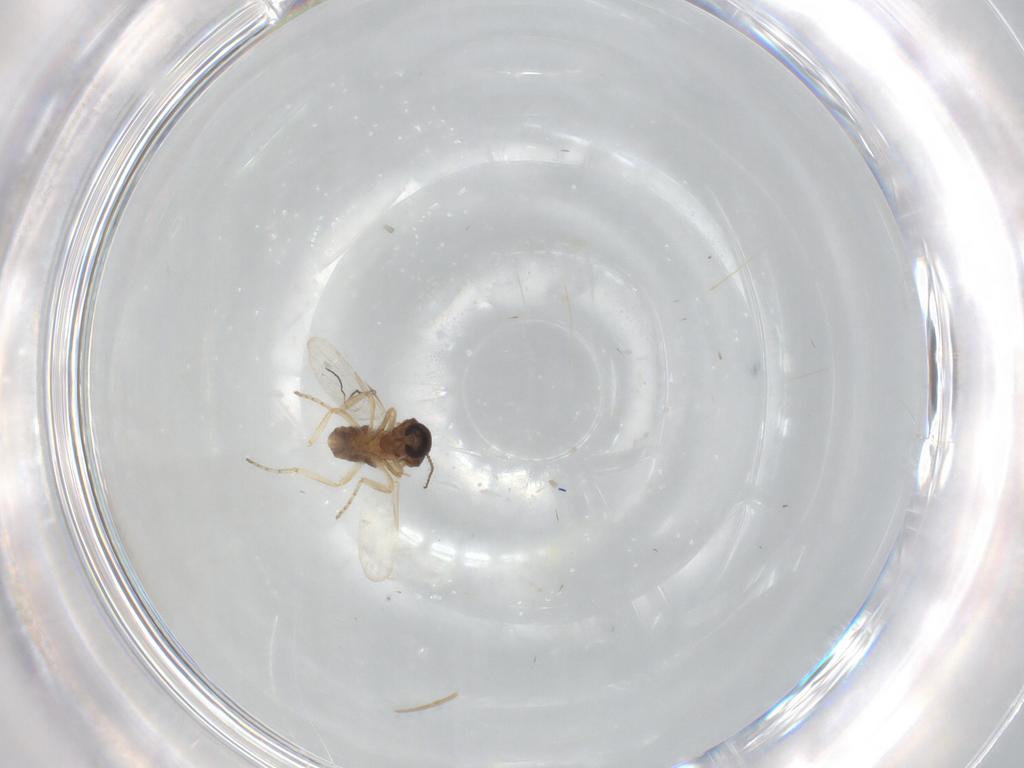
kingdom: Animalia
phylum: Arthropoda
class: Insecta
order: Diptera
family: Ceratopogonidae
